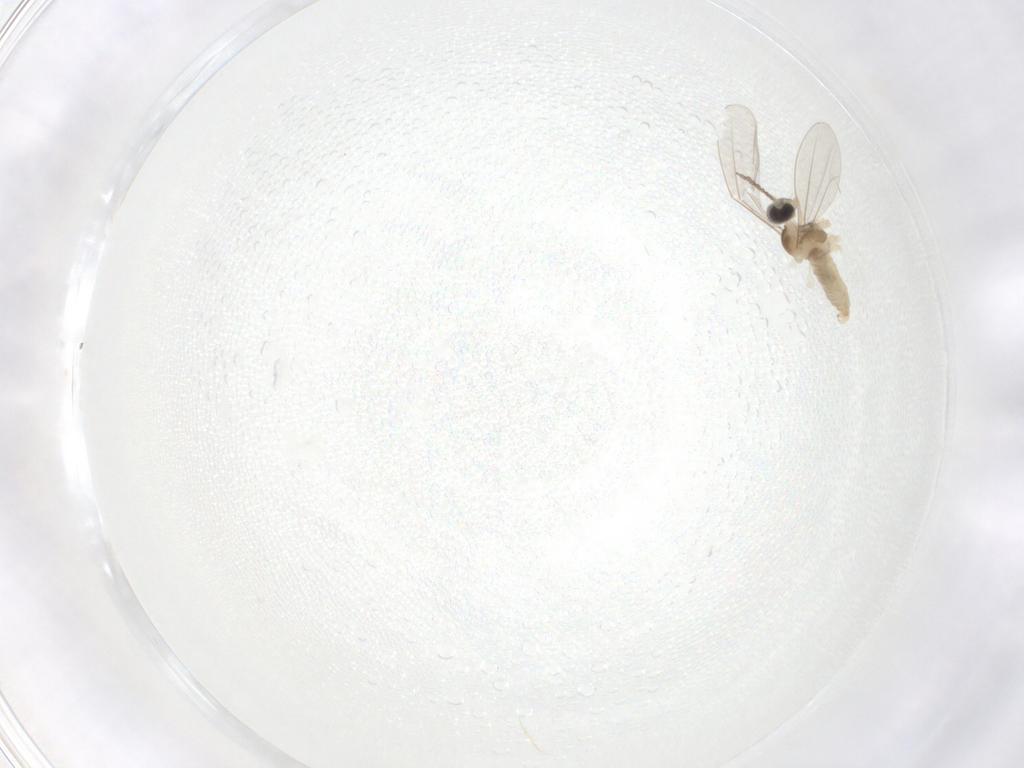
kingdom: Animalia
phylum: Arthropoda
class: Insecta
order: Diptera
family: Cecidomyiidae
